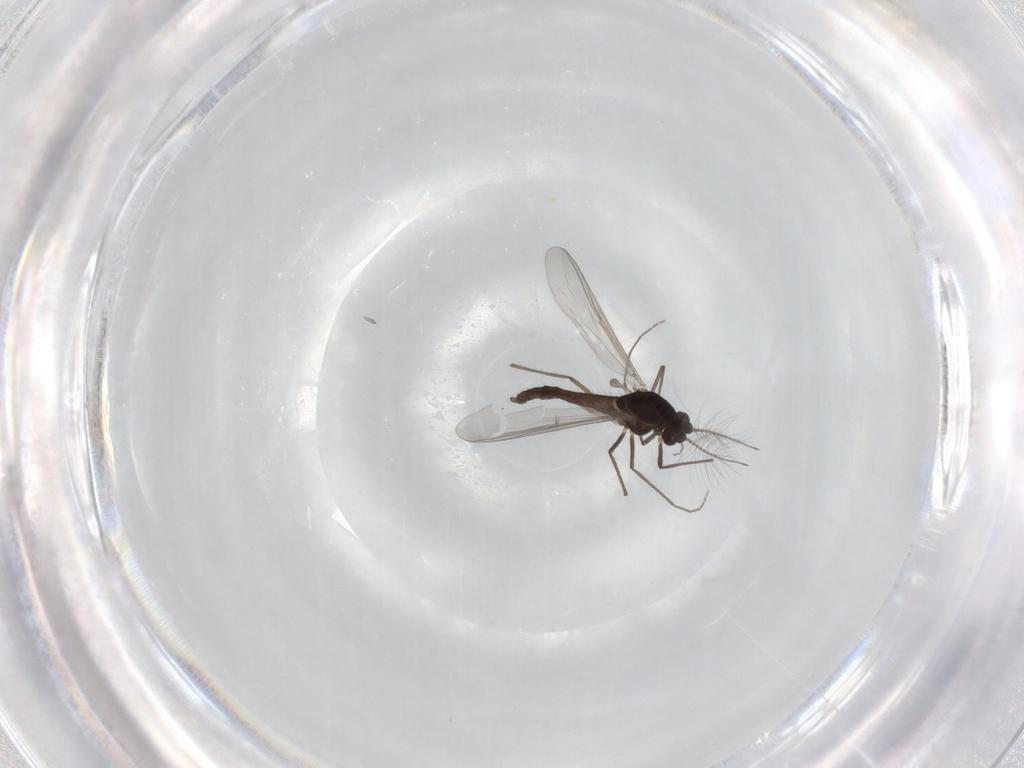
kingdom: Animalia
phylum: Arthropoda
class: Insecta
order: Diptera
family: Chironomidae
